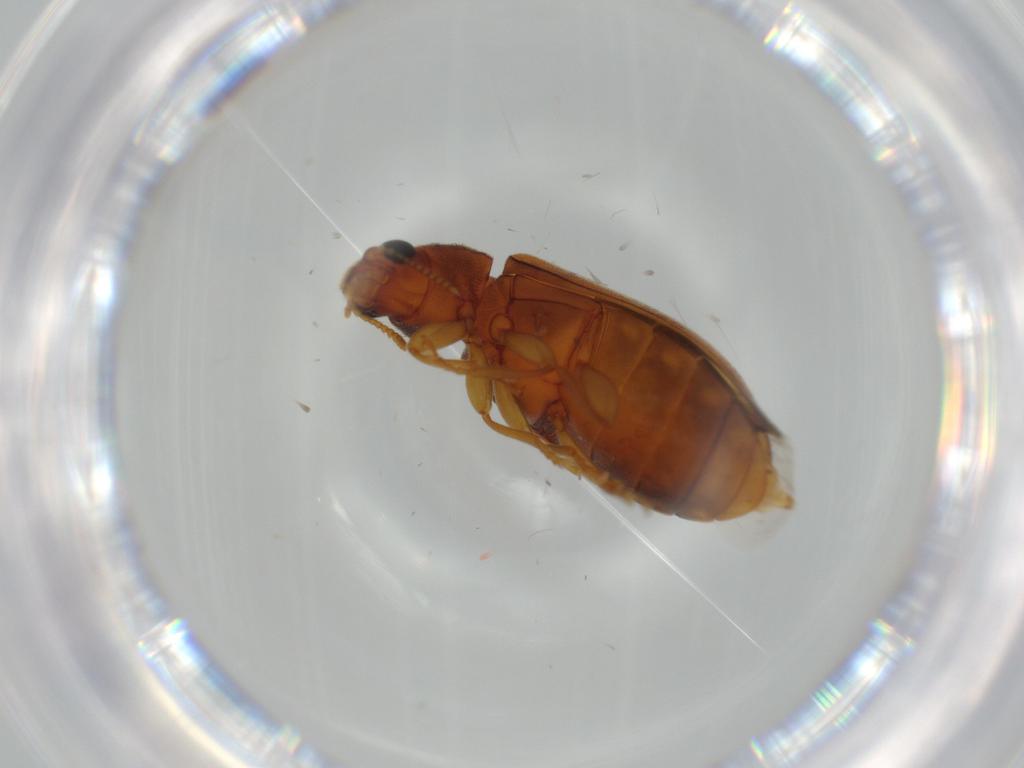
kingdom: Animalia
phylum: Arthropoda
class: Insecta
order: Coleoptera
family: Mycteridae
